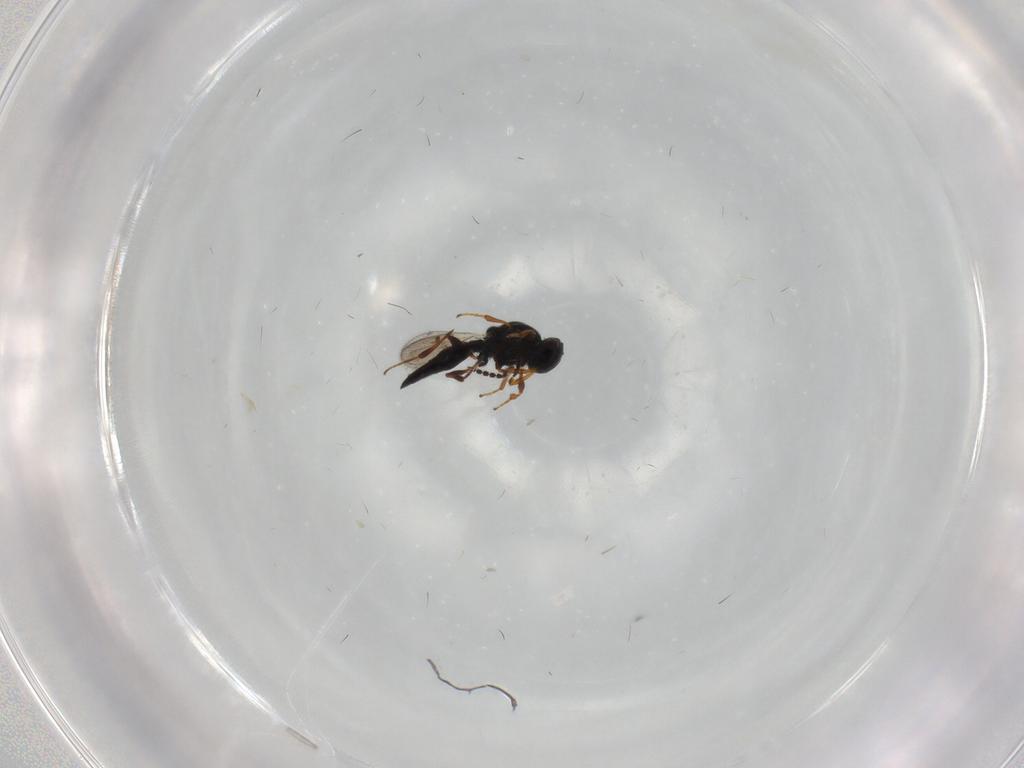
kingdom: Animalia
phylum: Arthropoda
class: Insecta
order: Hymenoptera
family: Platygastridae
